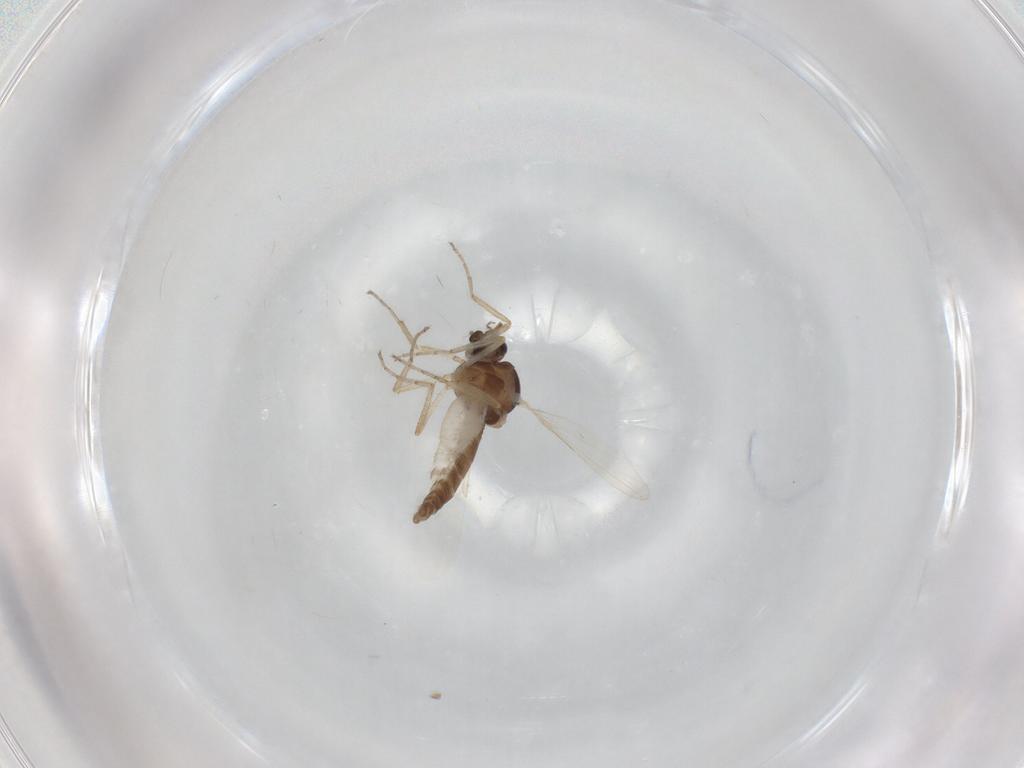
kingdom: Animalia
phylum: Arthropoda
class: Insecta
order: Diptera
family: Ceratopogonidae
